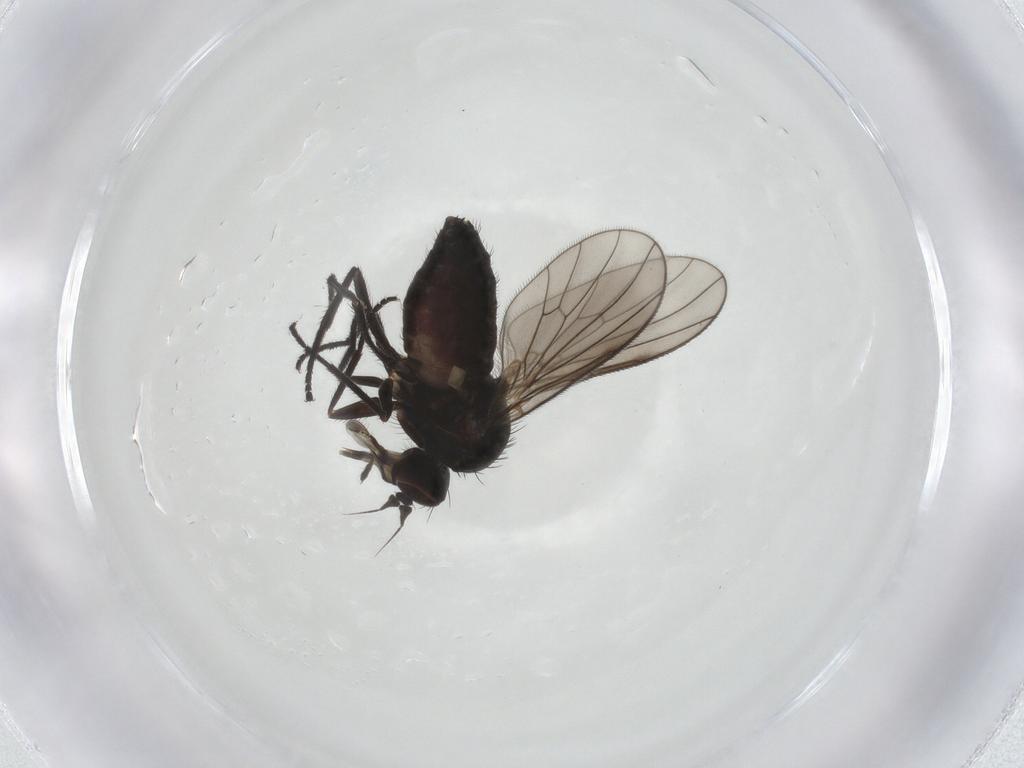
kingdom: Animalia
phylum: Arthropoda
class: Insecta
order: Diptera
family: Dolichopodidae
